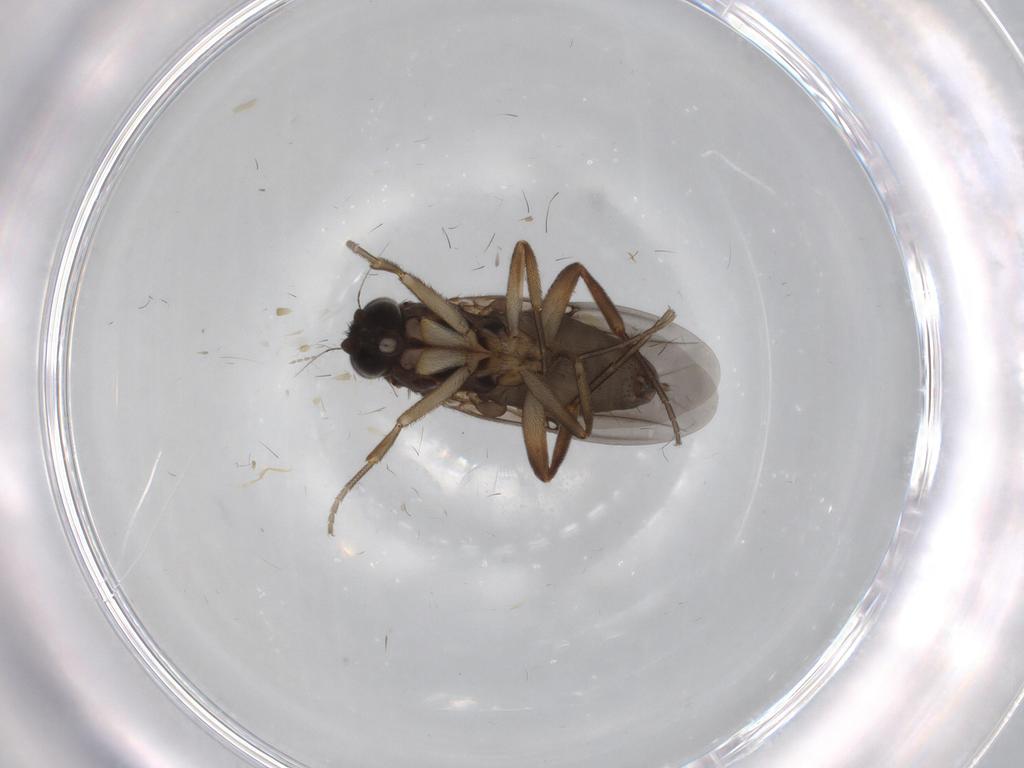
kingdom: Animalia
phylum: Arthropoda
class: Insecta
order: Diptera
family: Phoridae
